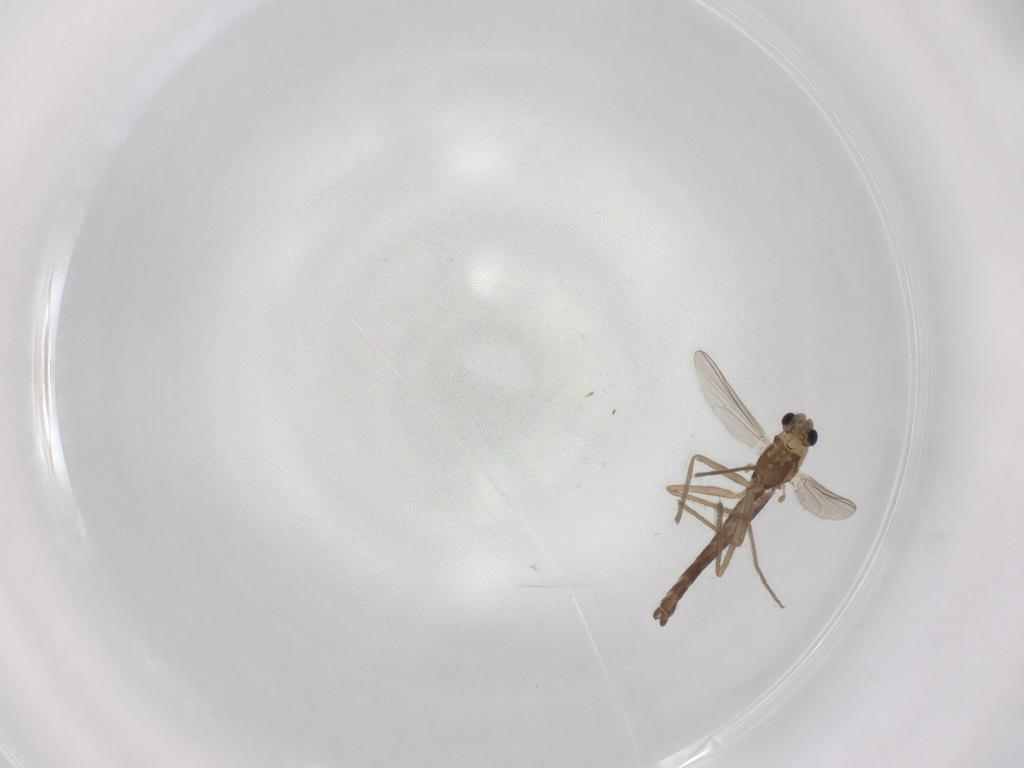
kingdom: Animalia
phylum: Arthropoda
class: Insecta
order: Diptera
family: Chironomidae
